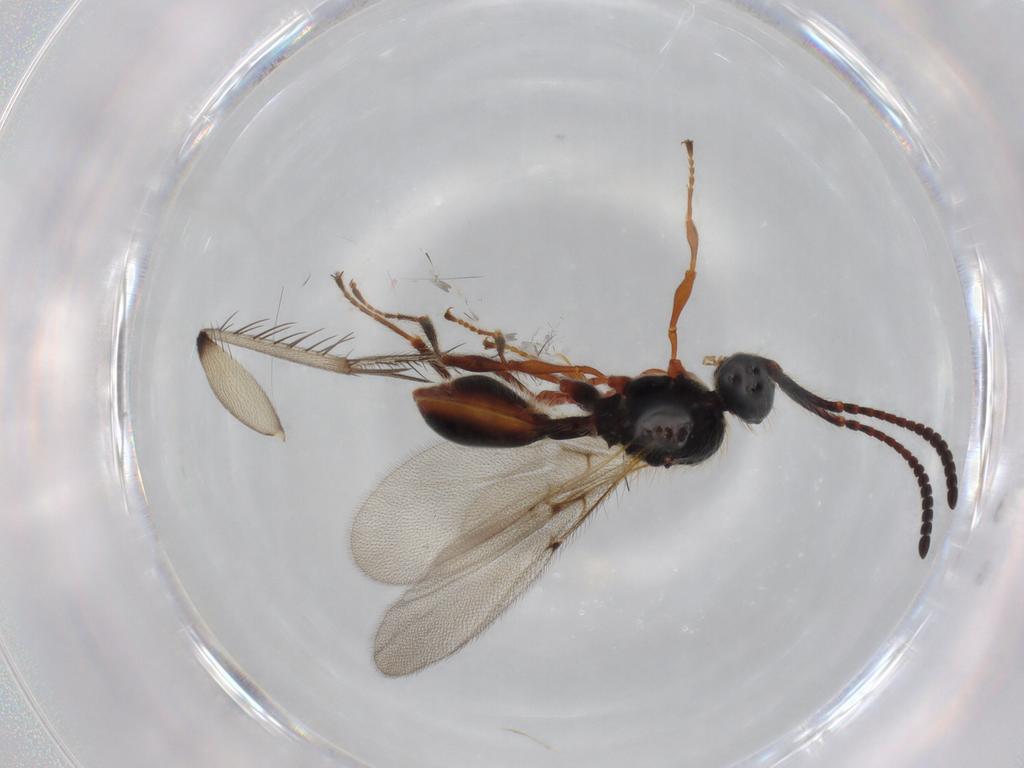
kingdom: Animalia
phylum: Arthropoda
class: Insecta
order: Hymenoptera
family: Diapriidae
